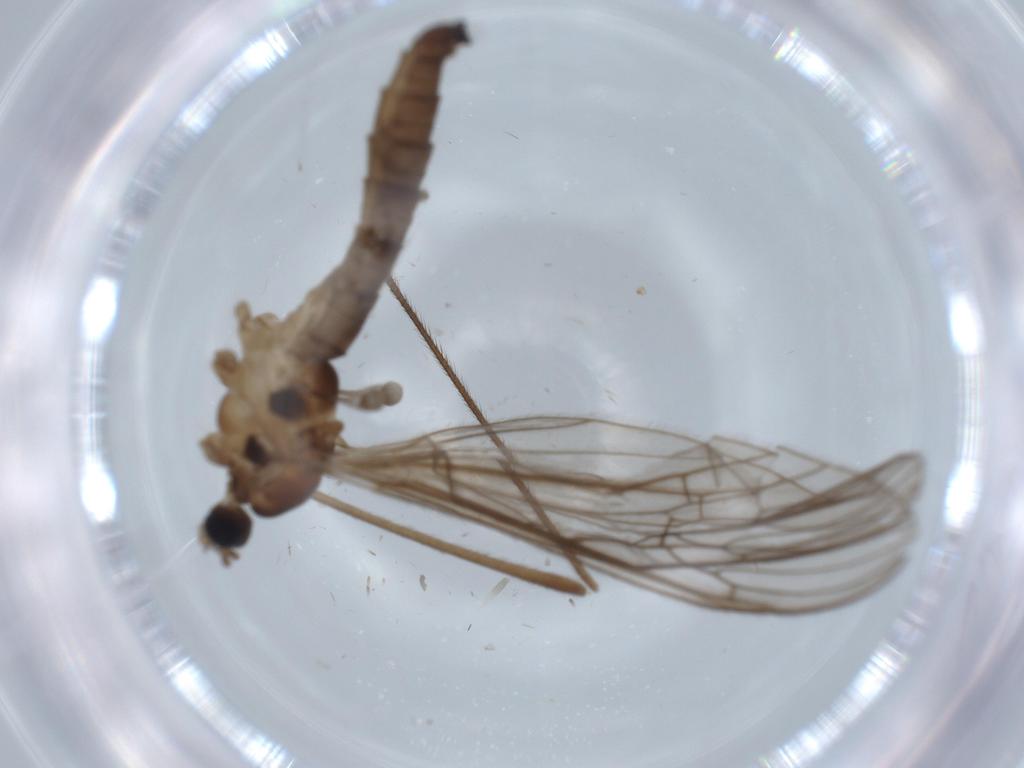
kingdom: Animalia
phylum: Arthropoda
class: Insecta
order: Diptera
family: Limoniidae
